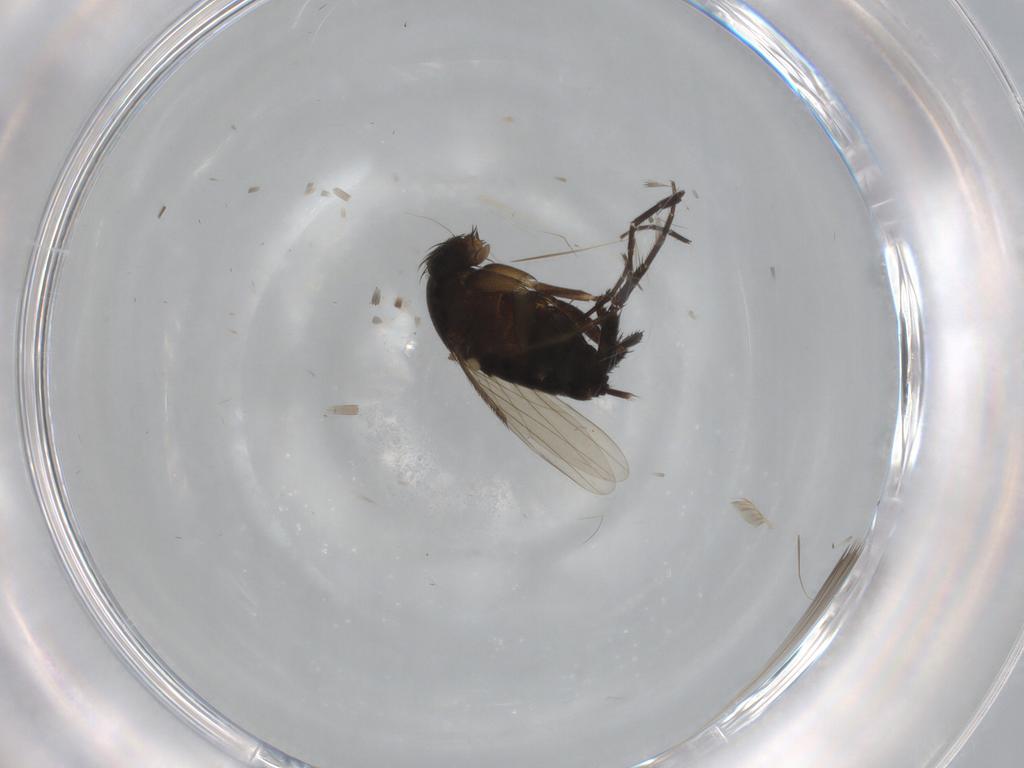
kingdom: Animalia
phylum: Arthropoda
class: Insecta
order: Diptera
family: Phoridae
